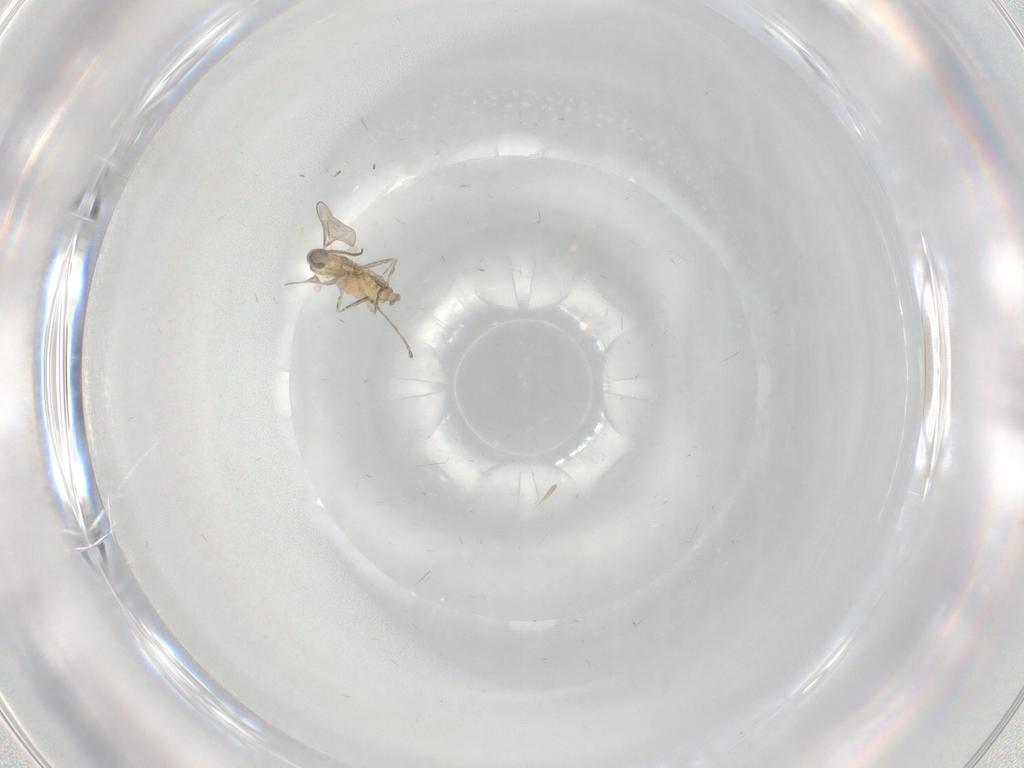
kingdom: Animalia
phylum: Arthropoda
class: Insecta
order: Diptera
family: Cecidomyiidae
